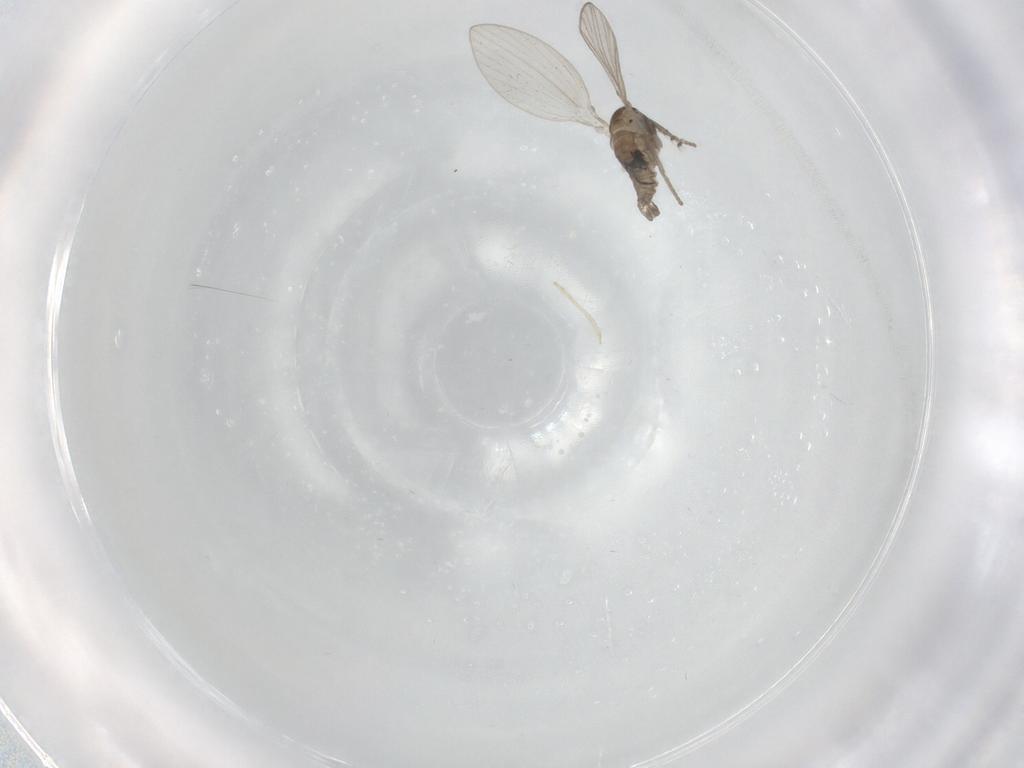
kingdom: Animalia
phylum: Arthropoda
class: Insecta
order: Diptera
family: Psychodidae
